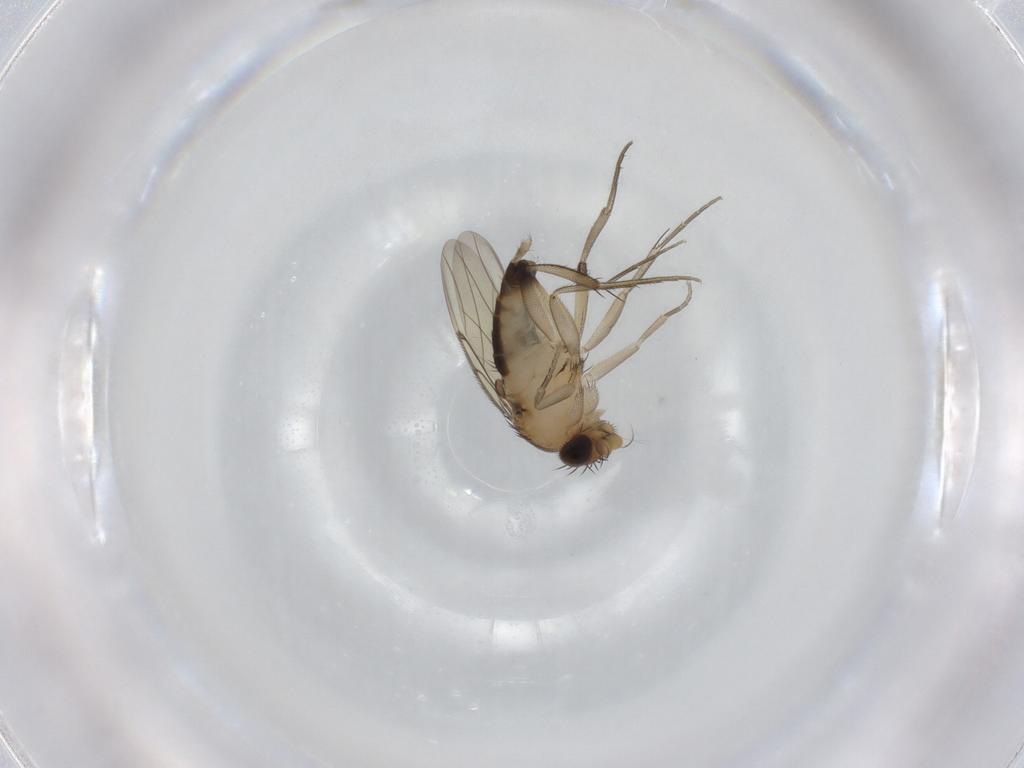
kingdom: Animalia
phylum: Arthropoda
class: Insecta
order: Diptera
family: Phoridae
